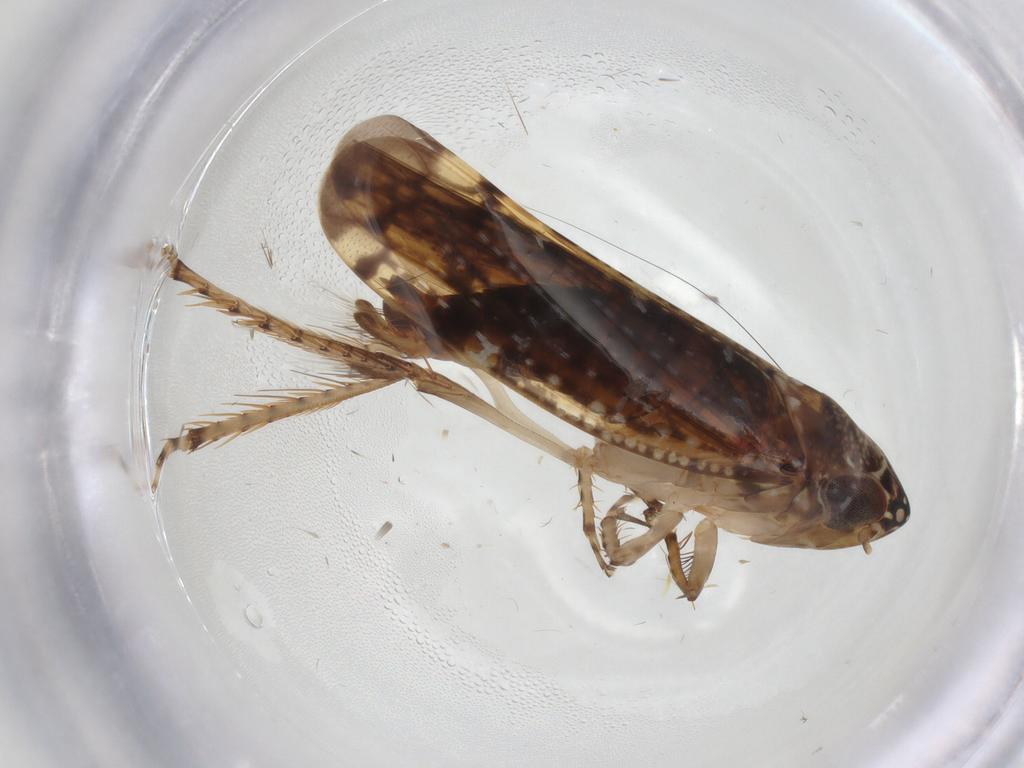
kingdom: Animalia
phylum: Arthropoda
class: Insecta
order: Hemiptera
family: Cicadellidae
